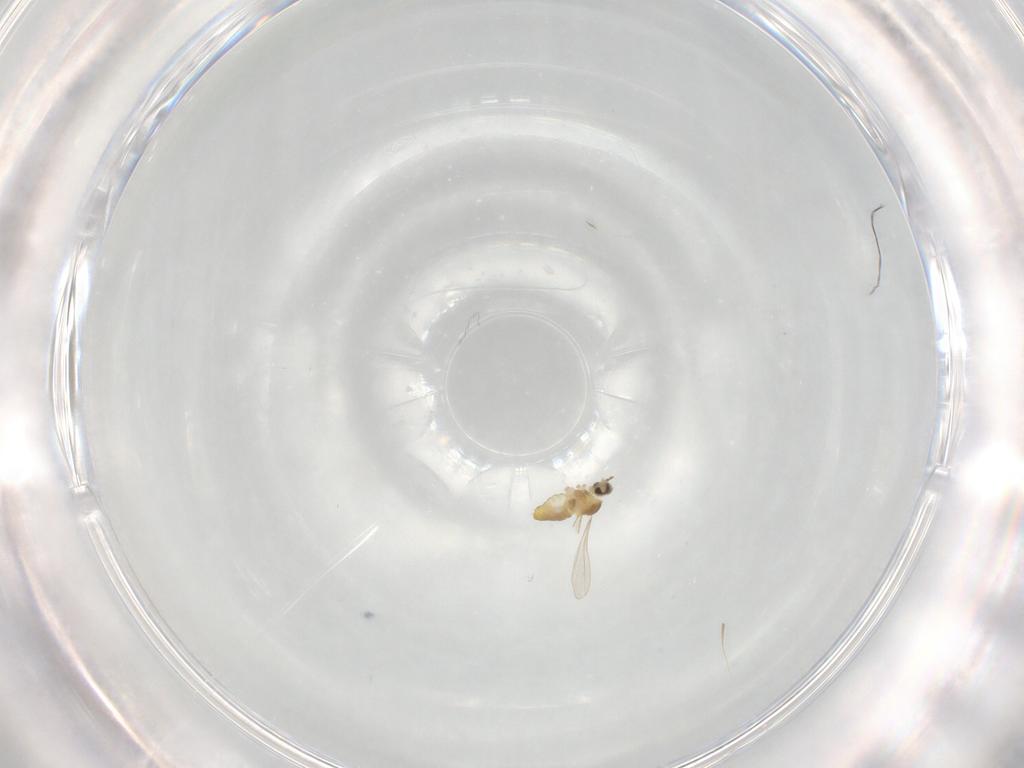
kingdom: Animalia
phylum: Arthropoda
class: Insecta
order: Diptera
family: Cecidomyiidae
